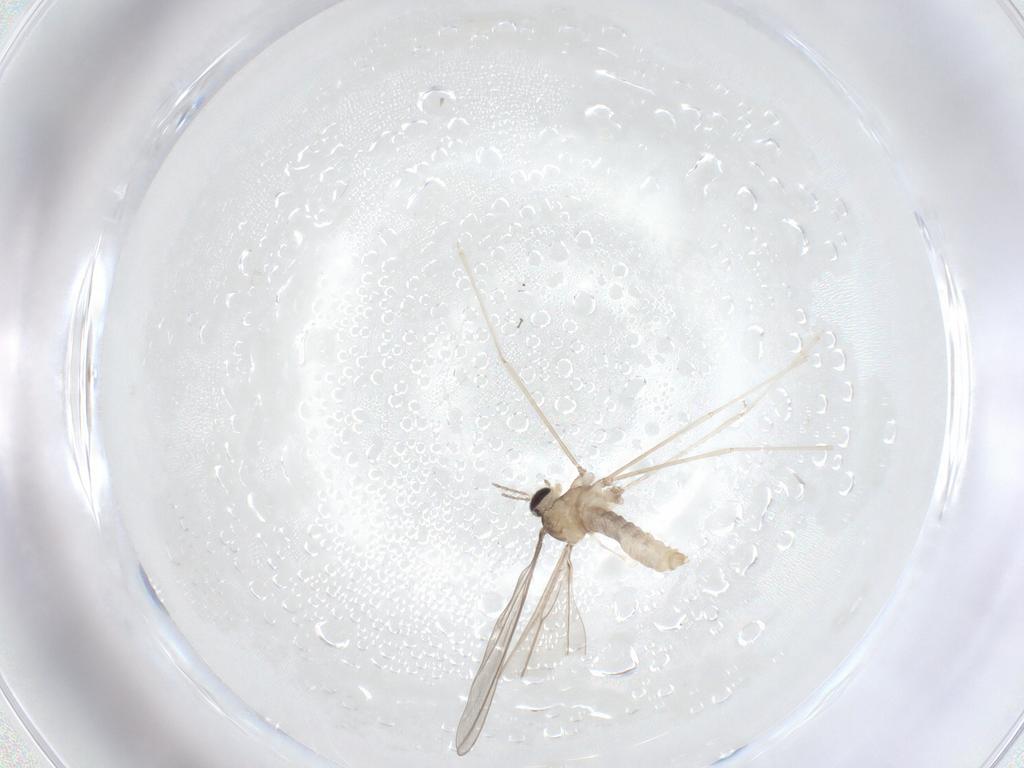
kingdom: Animalia
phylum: Arthropoda
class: Insecta
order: Diptera
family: Cecidomyiidae
